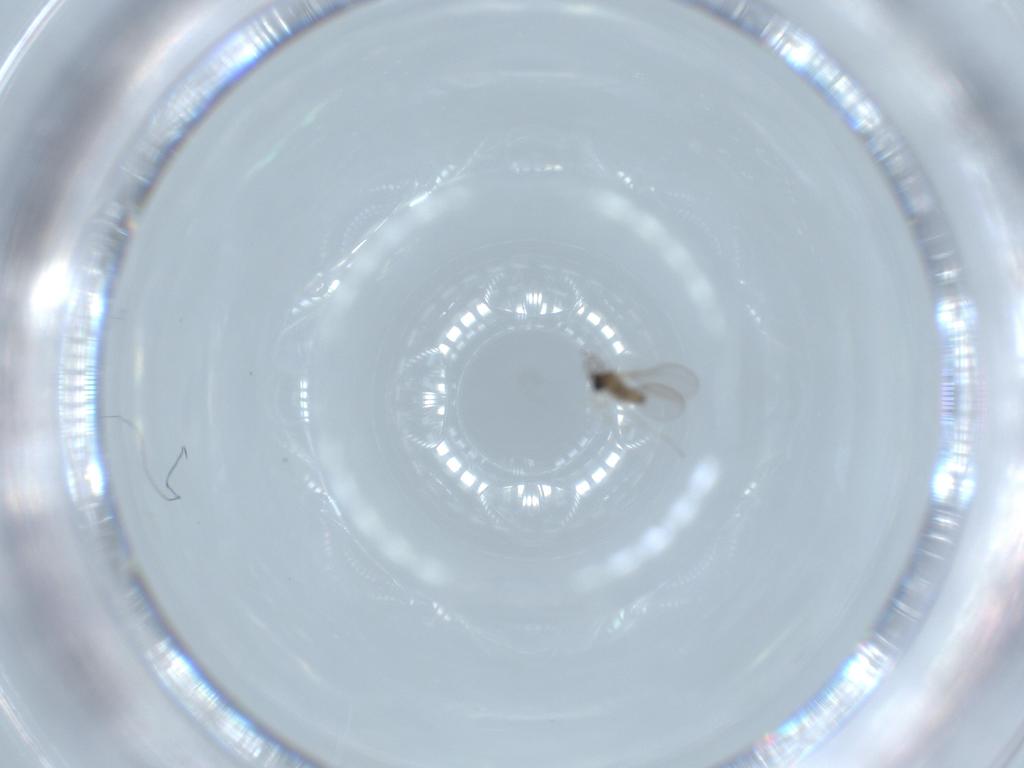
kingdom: Animalia
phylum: Arthropoda
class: Insecta
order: Diptera
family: Cecidomyiidae
